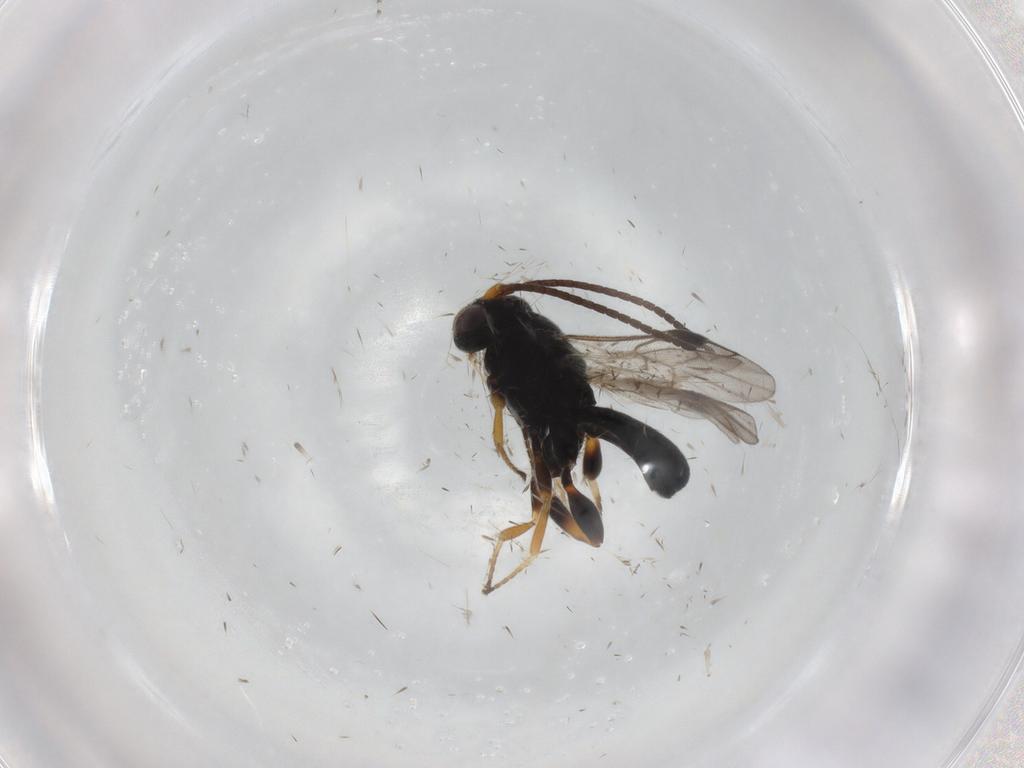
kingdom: Animalia
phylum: Arthropoda
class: Insecta
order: Hymenoptera
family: Braconidae
